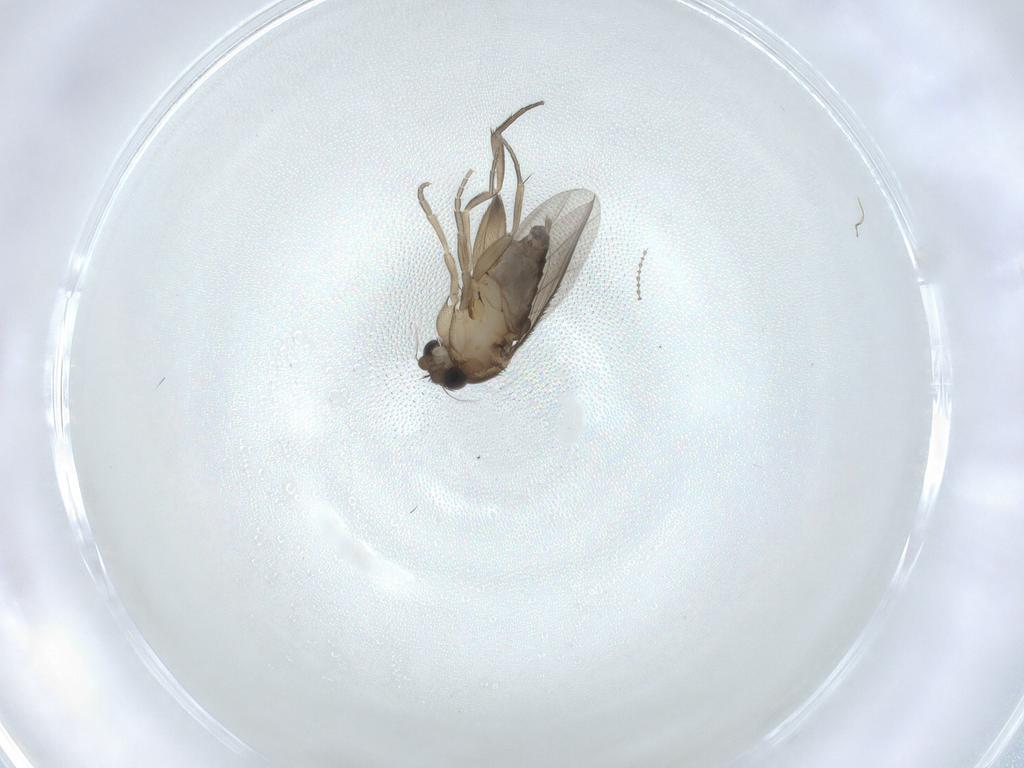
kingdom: Animalia
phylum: Arthropoda
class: Insecta
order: Diptera
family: Phoridae
